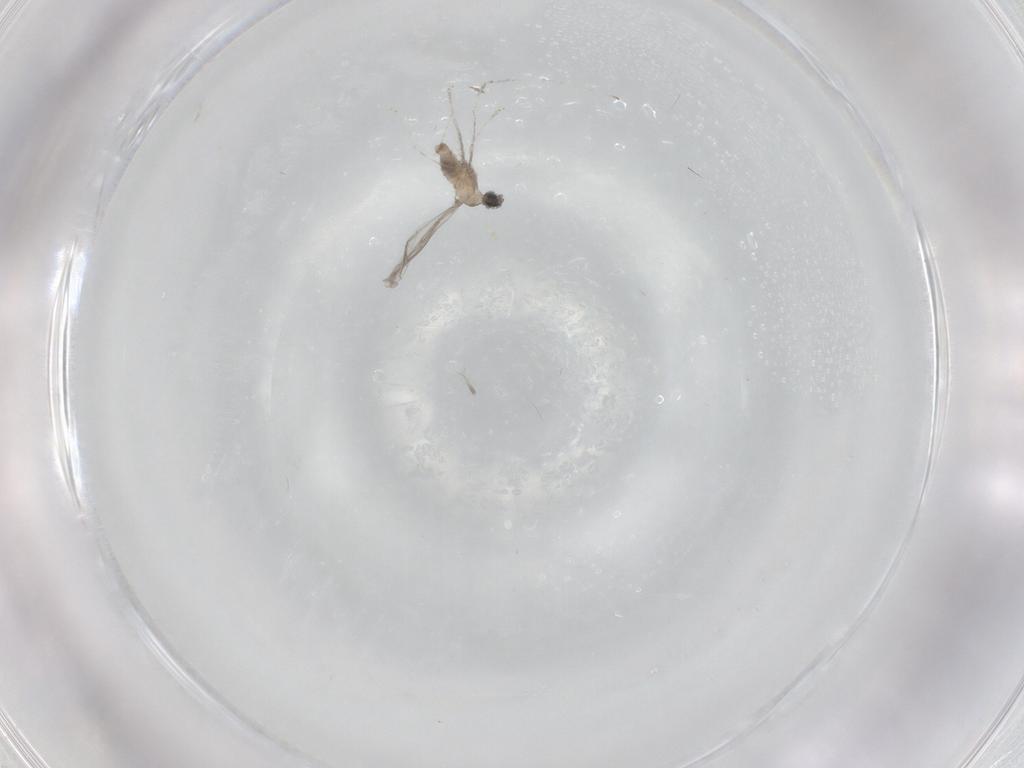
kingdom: Animalia
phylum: Arthropoda
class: Insecta
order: Diptera
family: Cecidomyiidae
